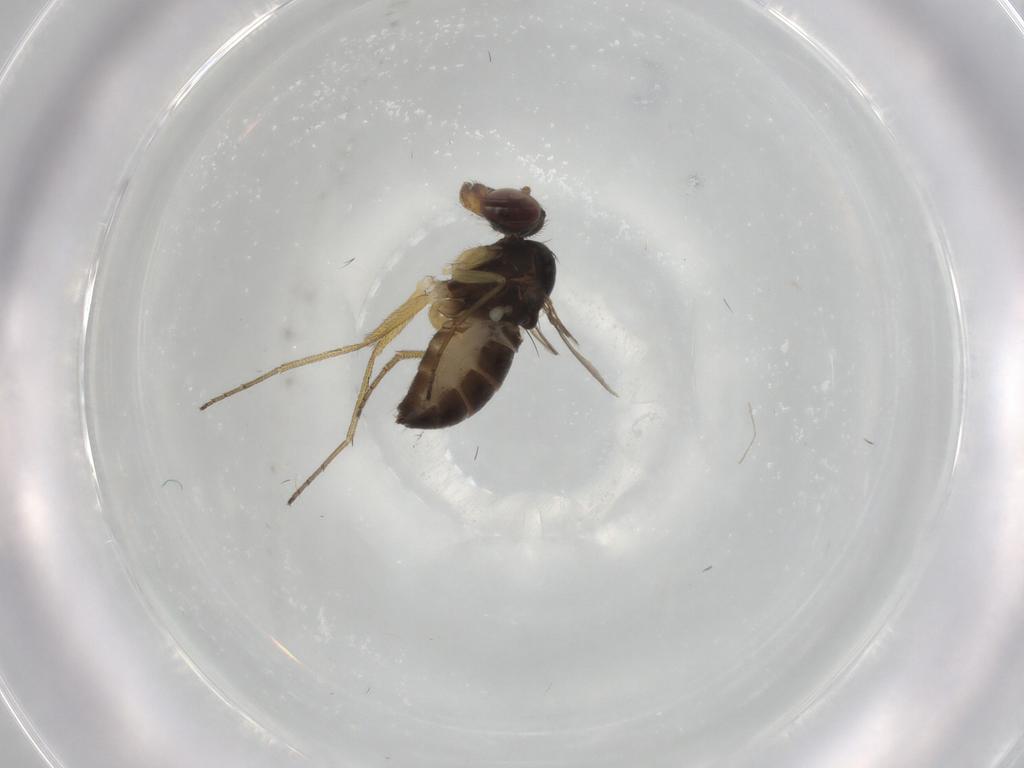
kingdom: Animalia
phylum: Arthropoda
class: Insecta
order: Diptera
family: Dolichopodidae
